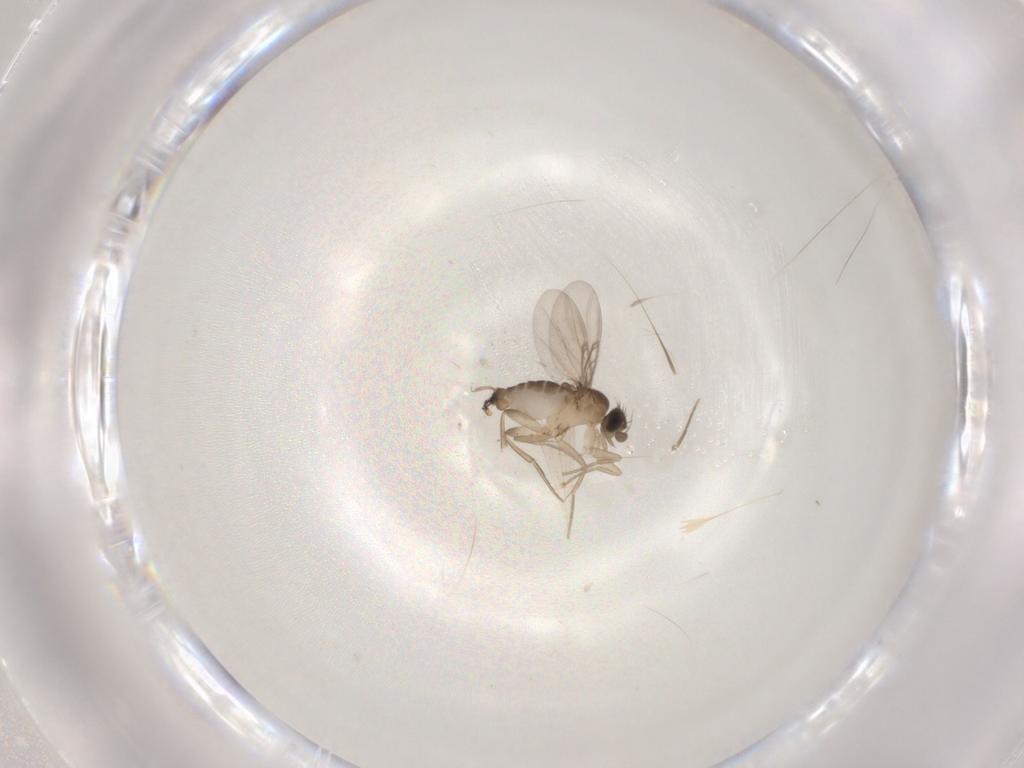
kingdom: Animalia
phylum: Arthropoda
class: Insecta
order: Diptera
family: Phoridae
